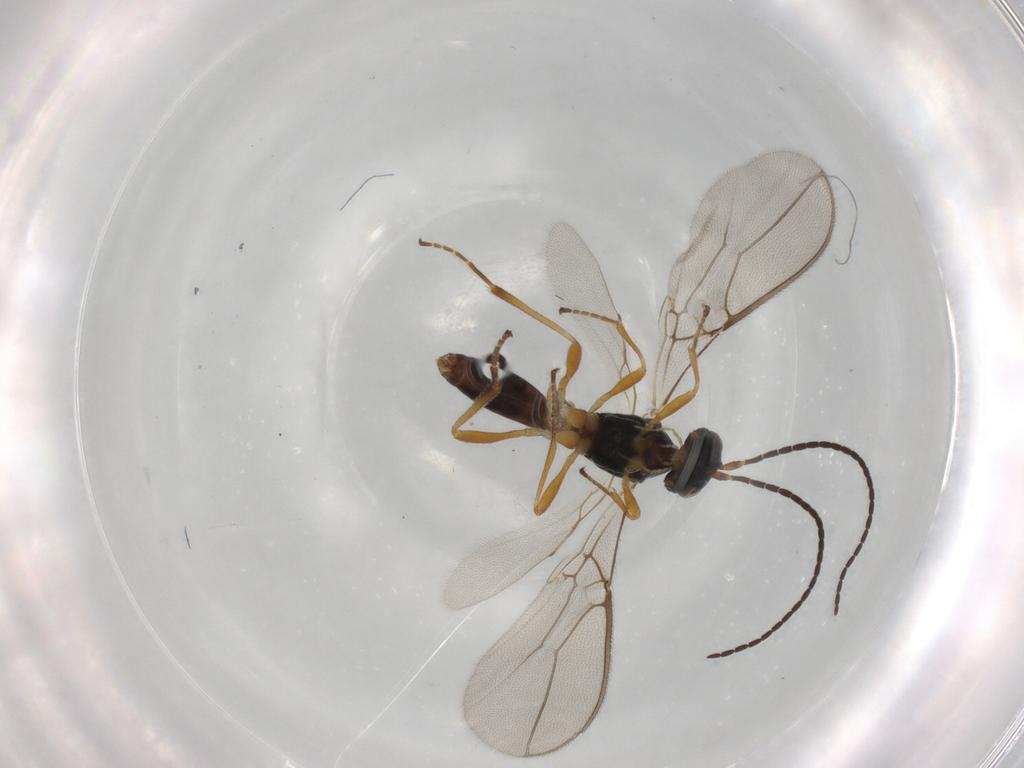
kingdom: Animalia
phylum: Arthropoda
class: Insecta
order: Hymenoptera
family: Braconidae
